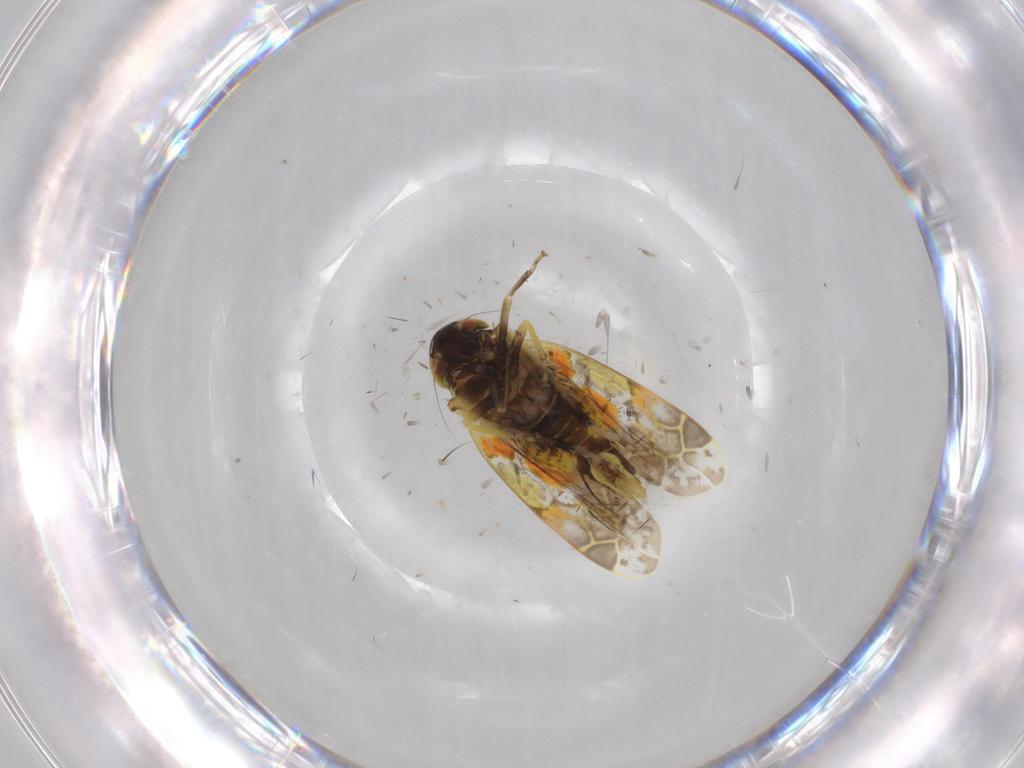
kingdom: Animalia
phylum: Arthropoda
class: Insecta
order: Hemiptera
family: Cicadellidae
